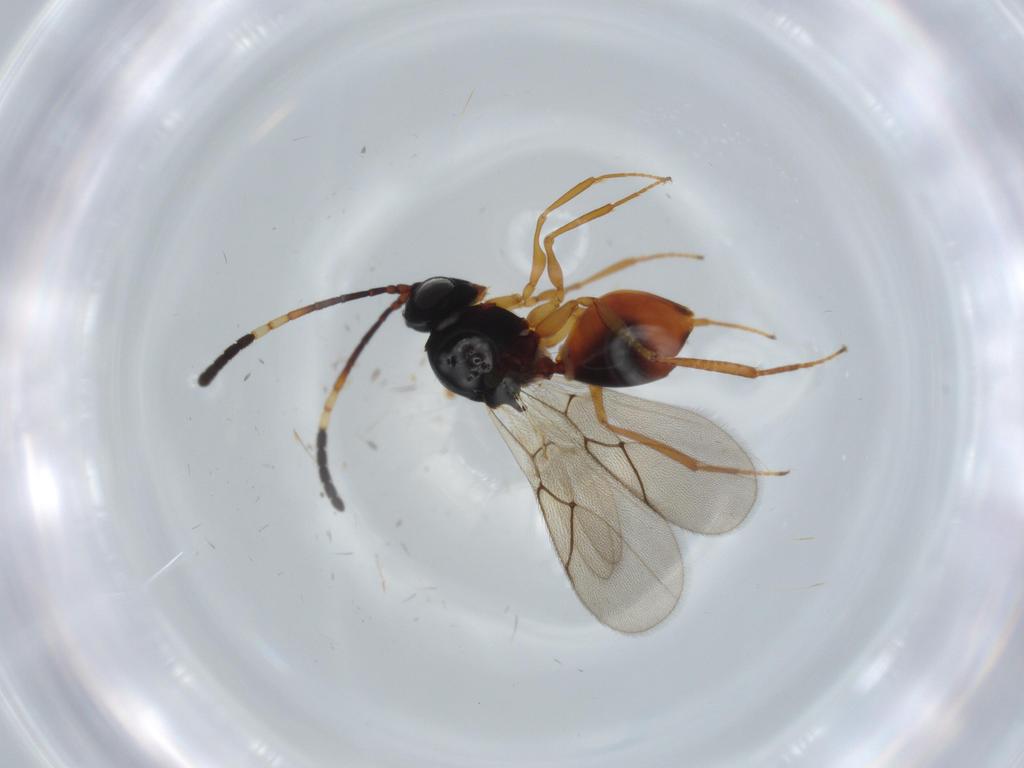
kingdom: Animalia
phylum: Arthropoda
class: Insecta
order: Hymenoptera
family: Figitidae
